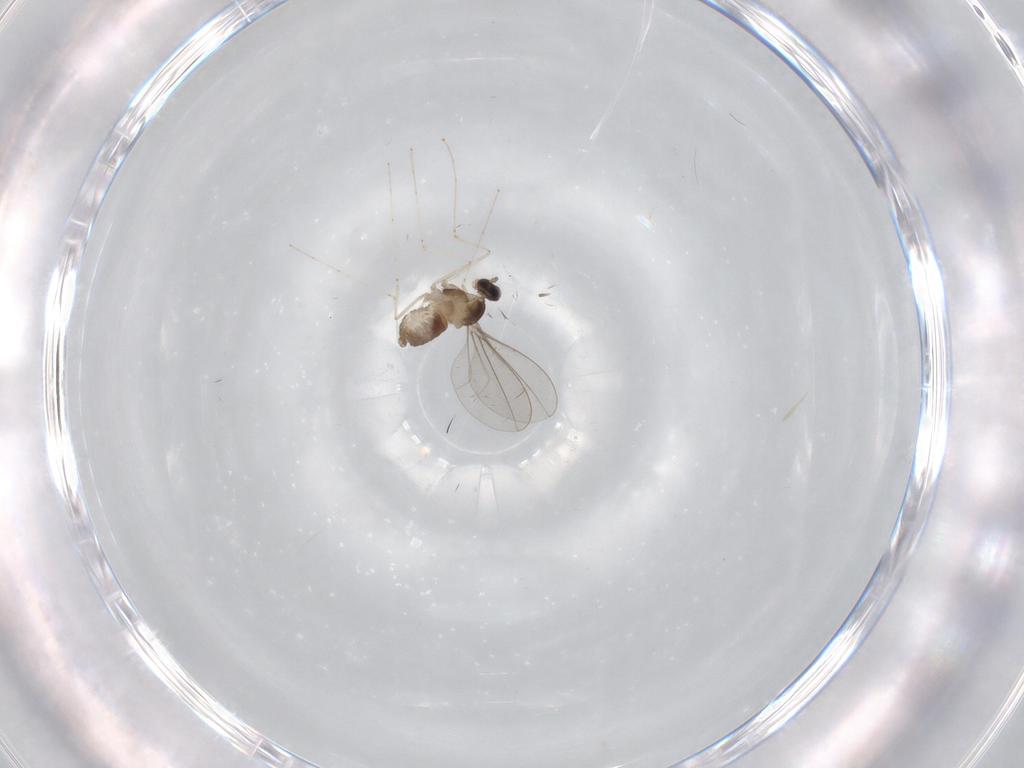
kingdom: Animalia
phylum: Arthropoda
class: Insecta
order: Diptera
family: Cecidomyiidae
